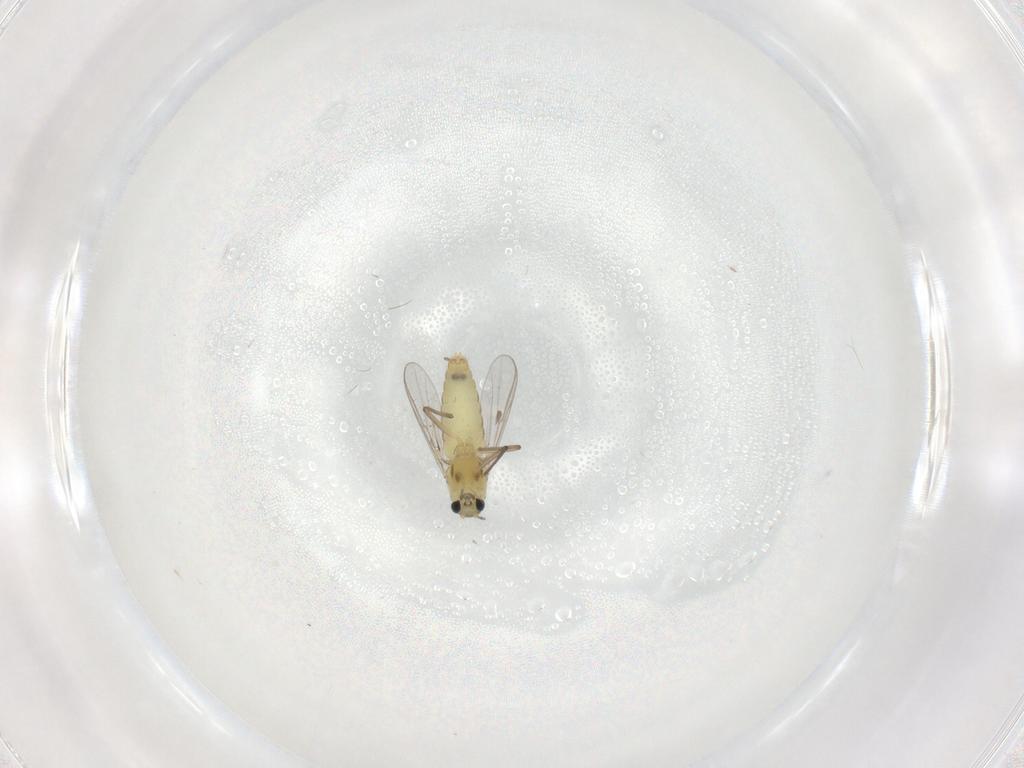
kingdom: Animalia
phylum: Arthropoda
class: Insecta
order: Diptera
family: Chironomidae
